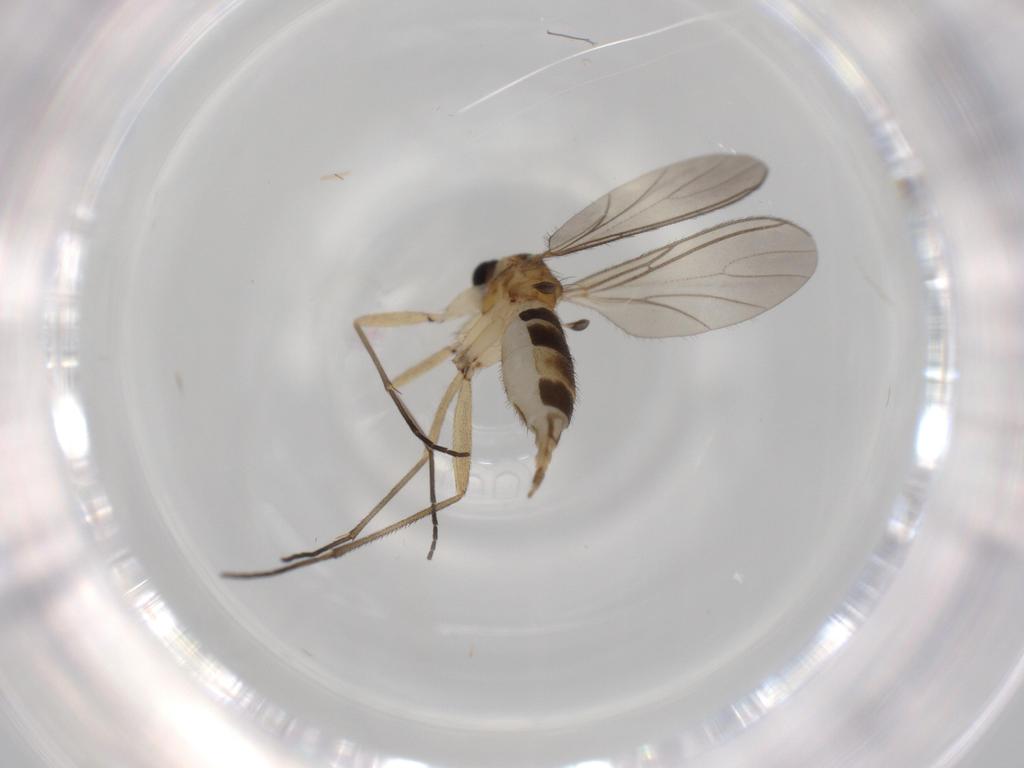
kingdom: Animalia
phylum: Arthropoda
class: Insecta
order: Diptera
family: Sciaridae
